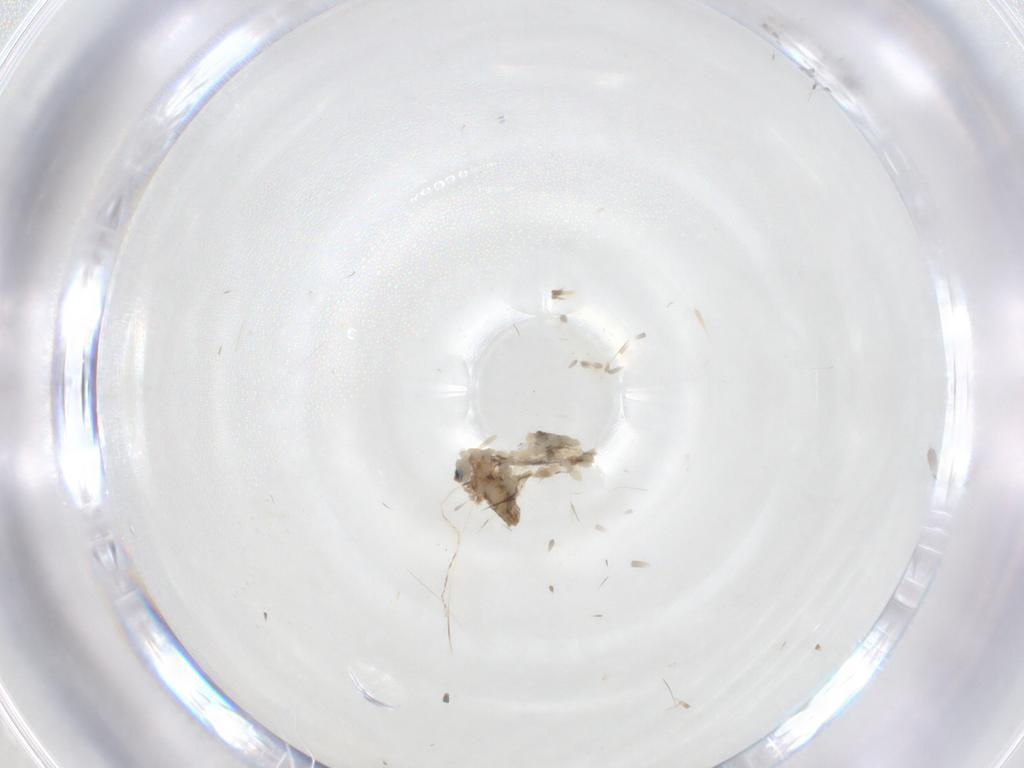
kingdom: Animalia
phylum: Arthropoda
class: Insecta
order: Diptera
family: Cecidomyiidae
